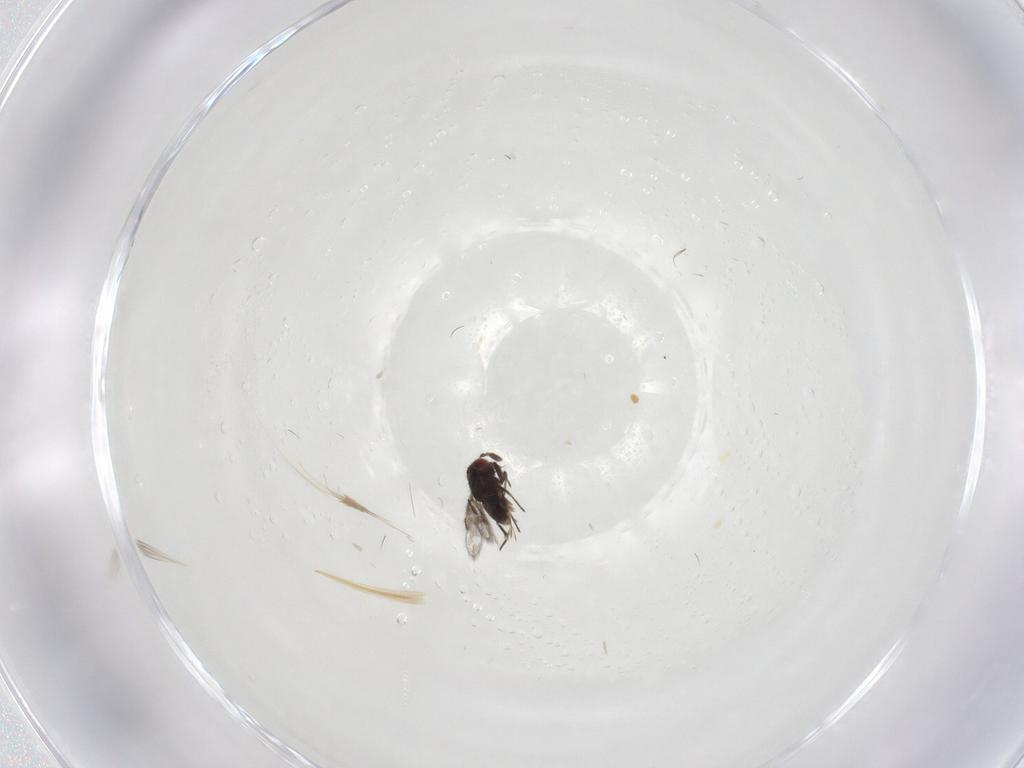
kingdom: Animalia
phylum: Arthropoda
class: Insecta
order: Hymenoptera
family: Eulophidae
